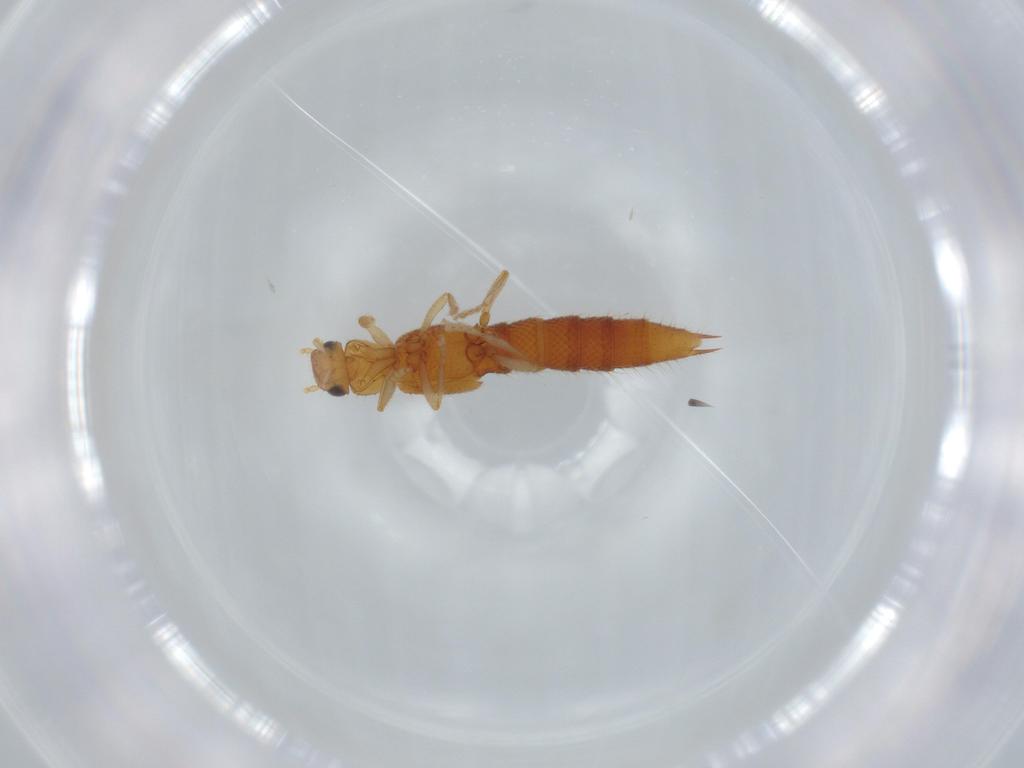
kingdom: Animalia
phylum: Arthropoda
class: Insecta
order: Coleoptera
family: Staphylinidae
